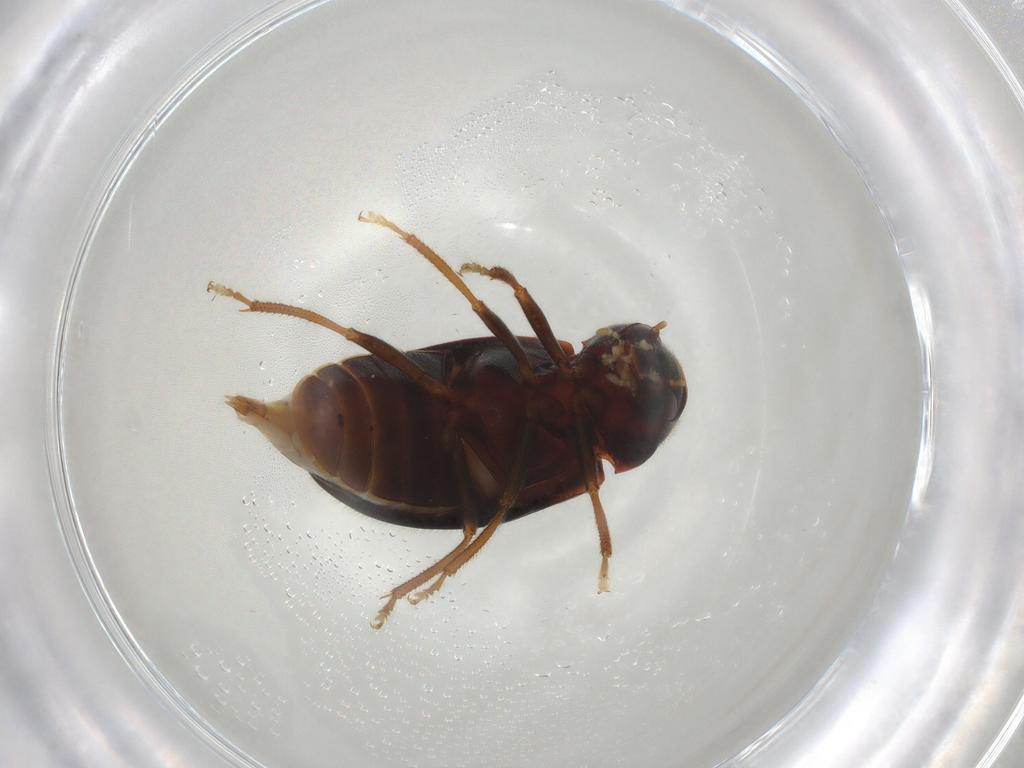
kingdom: Animalia
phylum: Arthropoda
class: Insecta
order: Coleoptera
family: Ptilodactylidae
